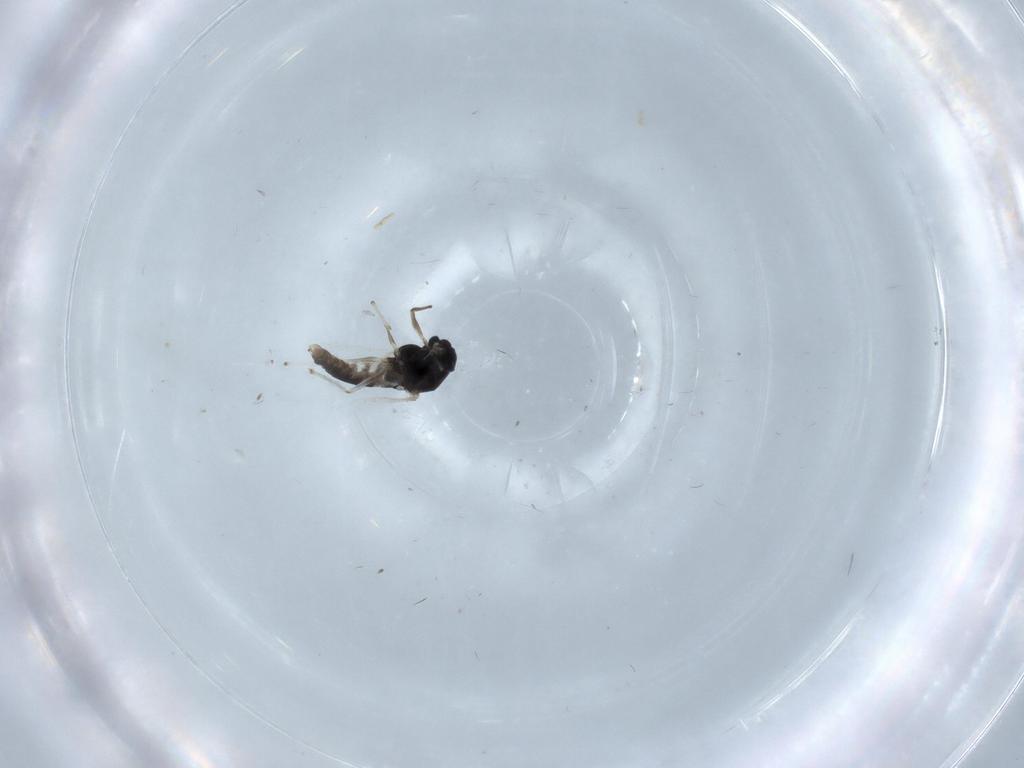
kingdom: Animalia
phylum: Arthropoda
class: Insecta
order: Diptera
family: Chironomidae
